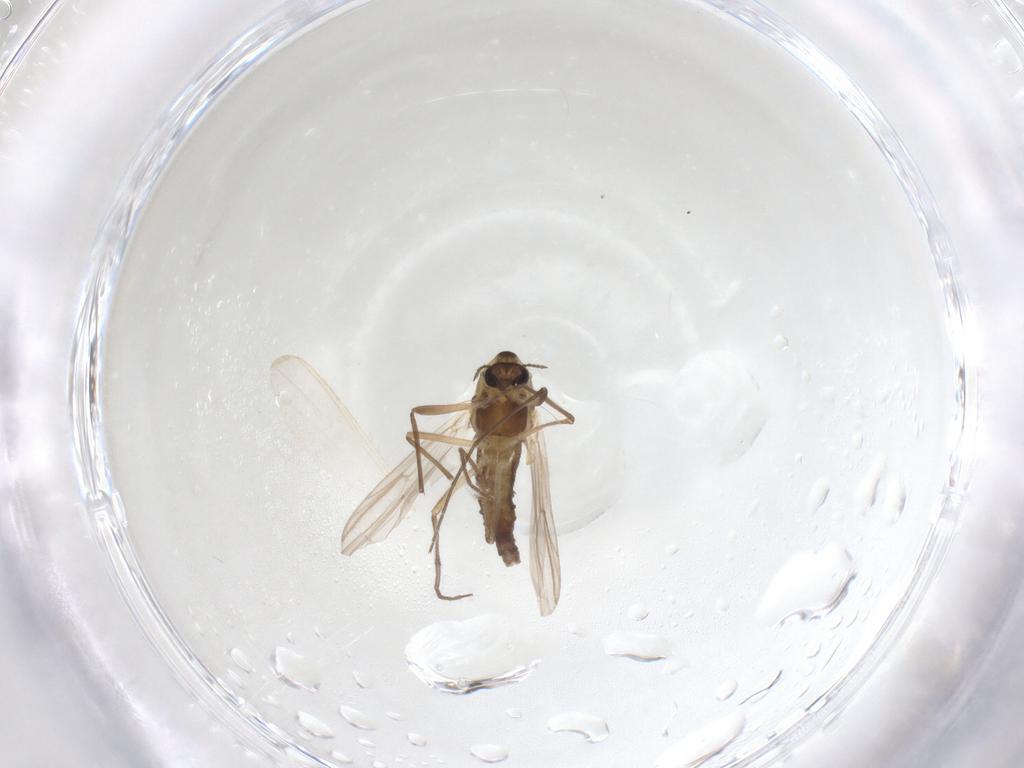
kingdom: Animalia
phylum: Arthropoda
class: Insecta
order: Diptera
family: Chironomidae
